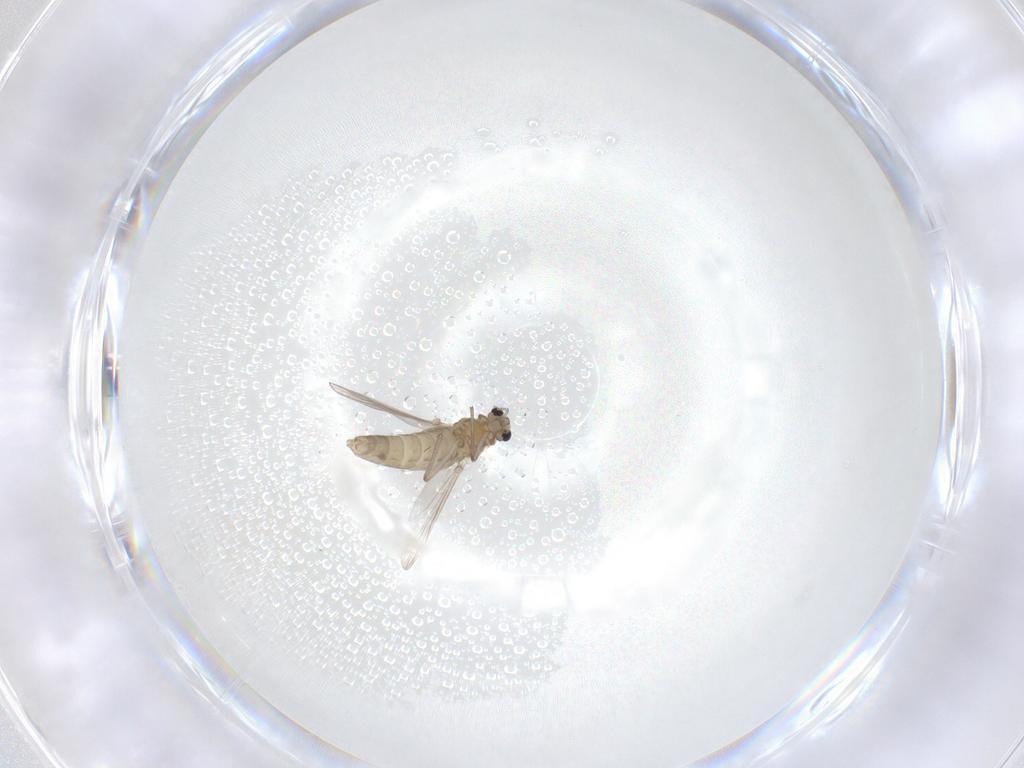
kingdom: Animalia
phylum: Arthropoda
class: Insecta
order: Diptera
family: Chironomidae
